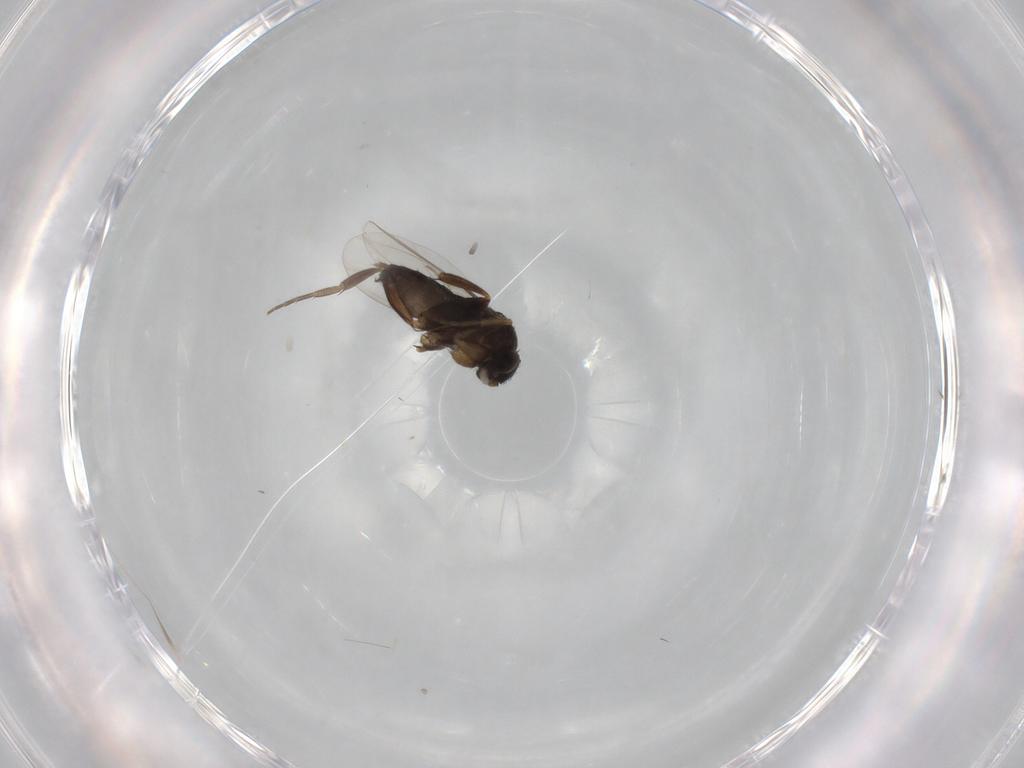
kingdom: Animalia
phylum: Arthropoda
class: Insecta
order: Diptera
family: Phoridae
